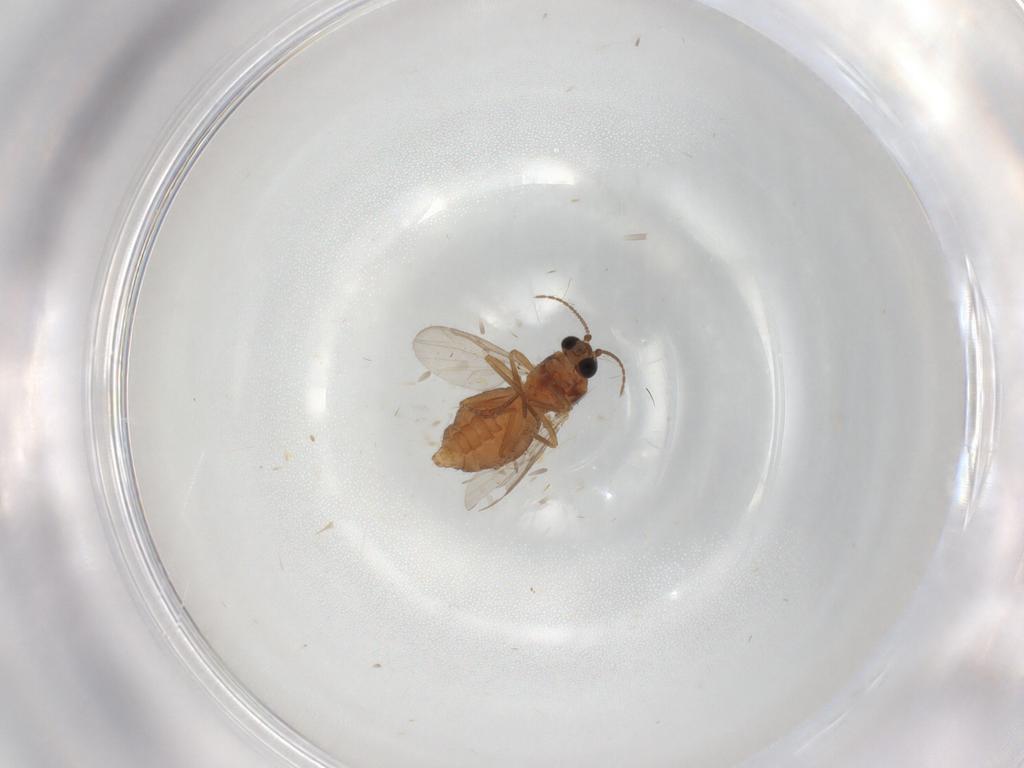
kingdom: Animalia
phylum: Arthropoda
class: Insecta
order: Diptera
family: Ceratopogonidae
